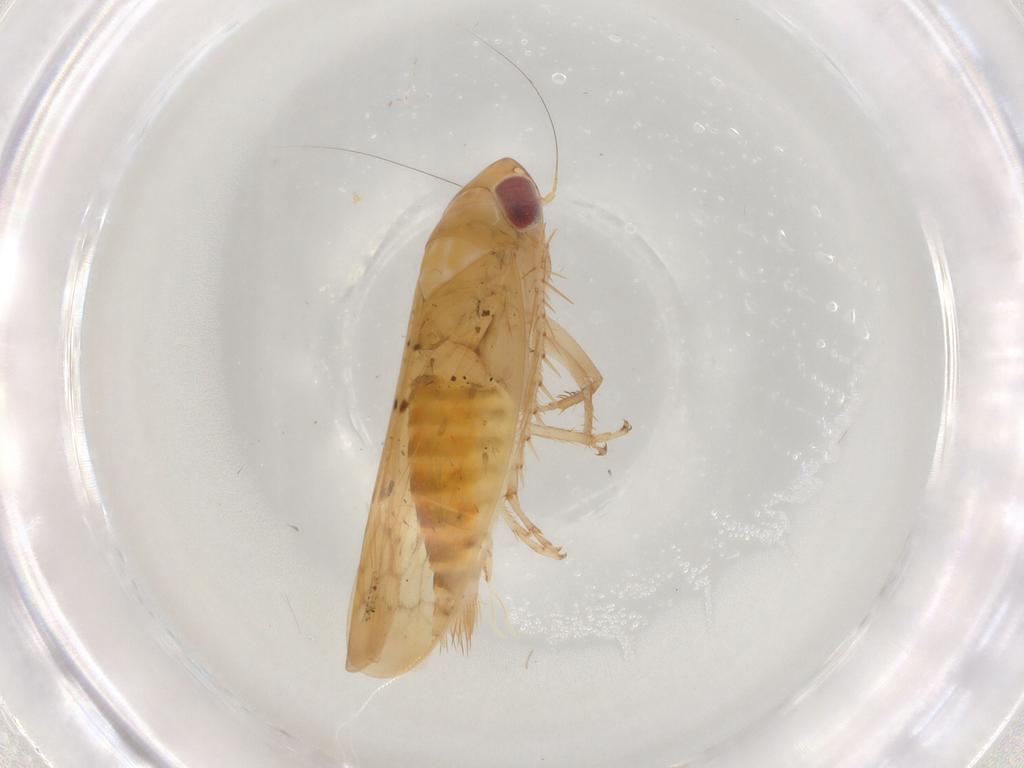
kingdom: Animalia
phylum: Arthropoda
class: Insecta
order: Hemiptera
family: Cicadellidae
